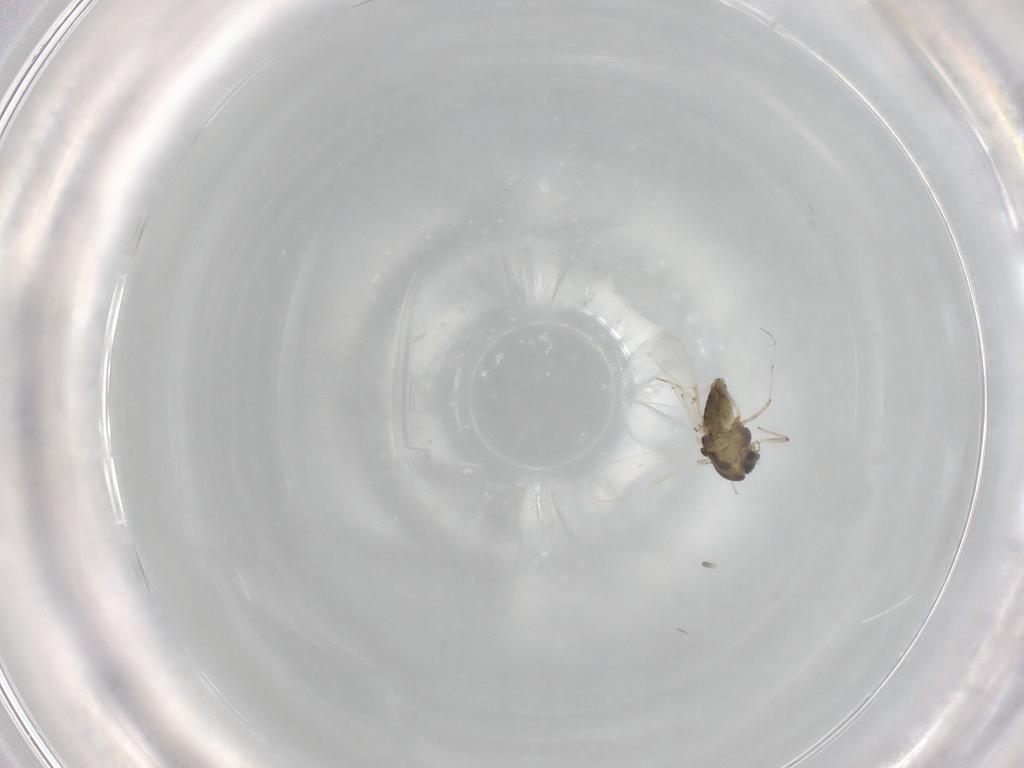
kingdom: Animalia
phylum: Arthropoda
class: Insecta
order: Diptera
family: Chironomidae
